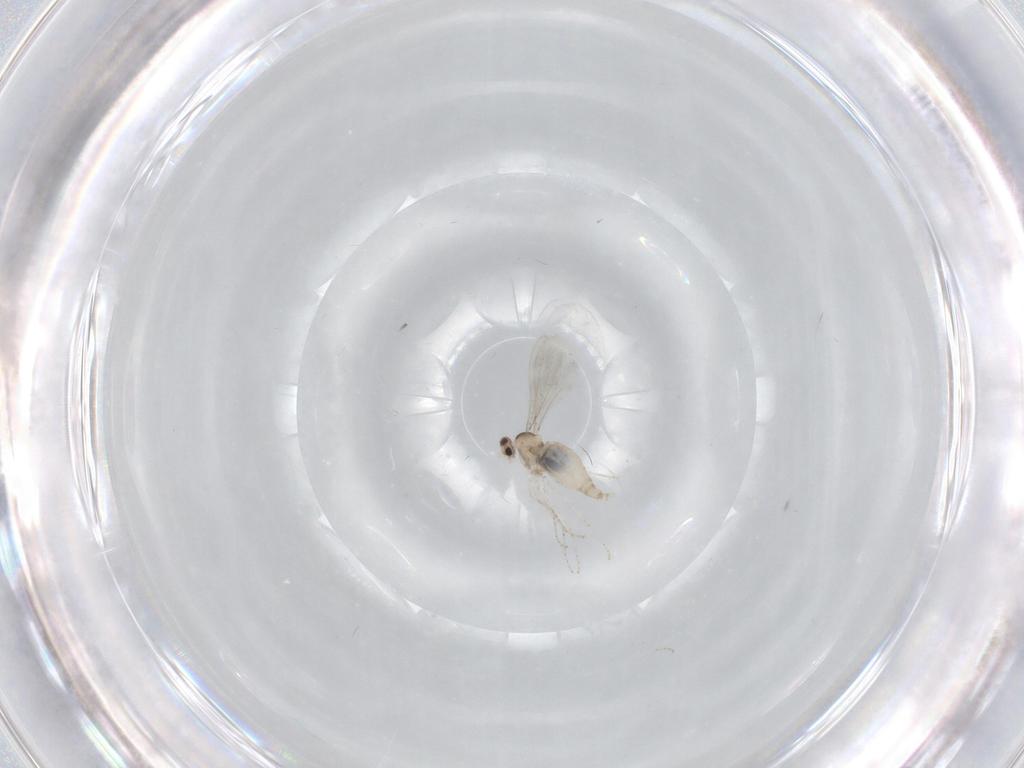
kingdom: Animalia
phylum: Arthropoda
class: Insecta
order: Diptera
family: Cecidomyiidae
